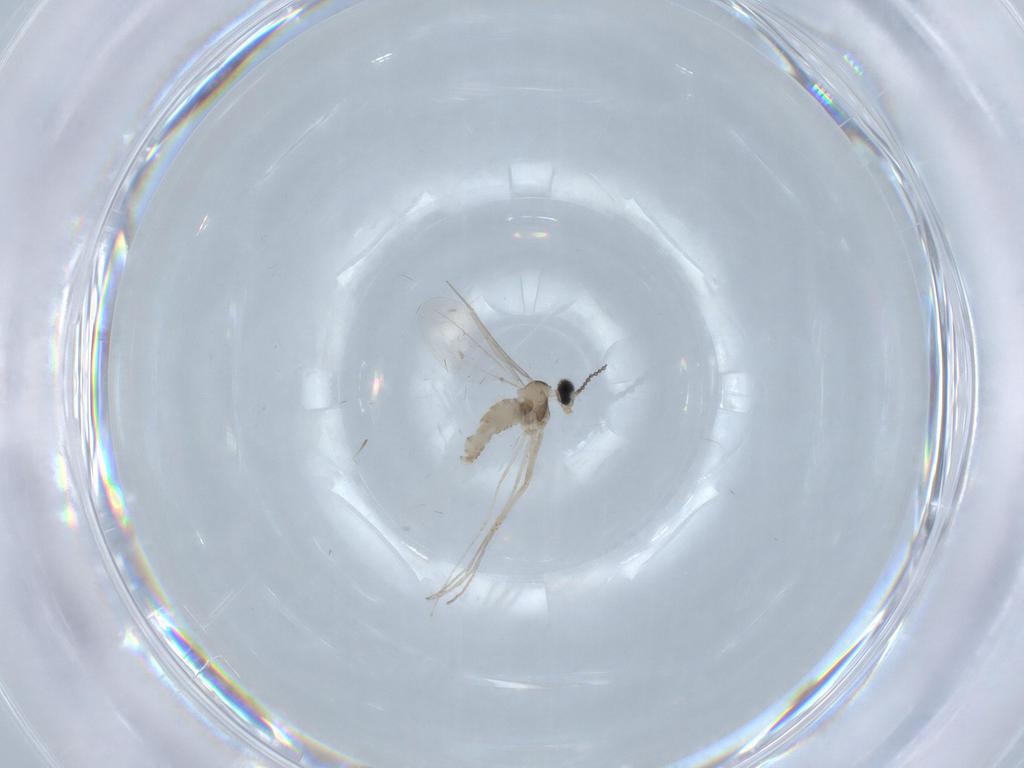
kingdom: Animalia
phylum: Arthropoda
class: Insecta
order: Diptera
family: Cecidomyiidae
